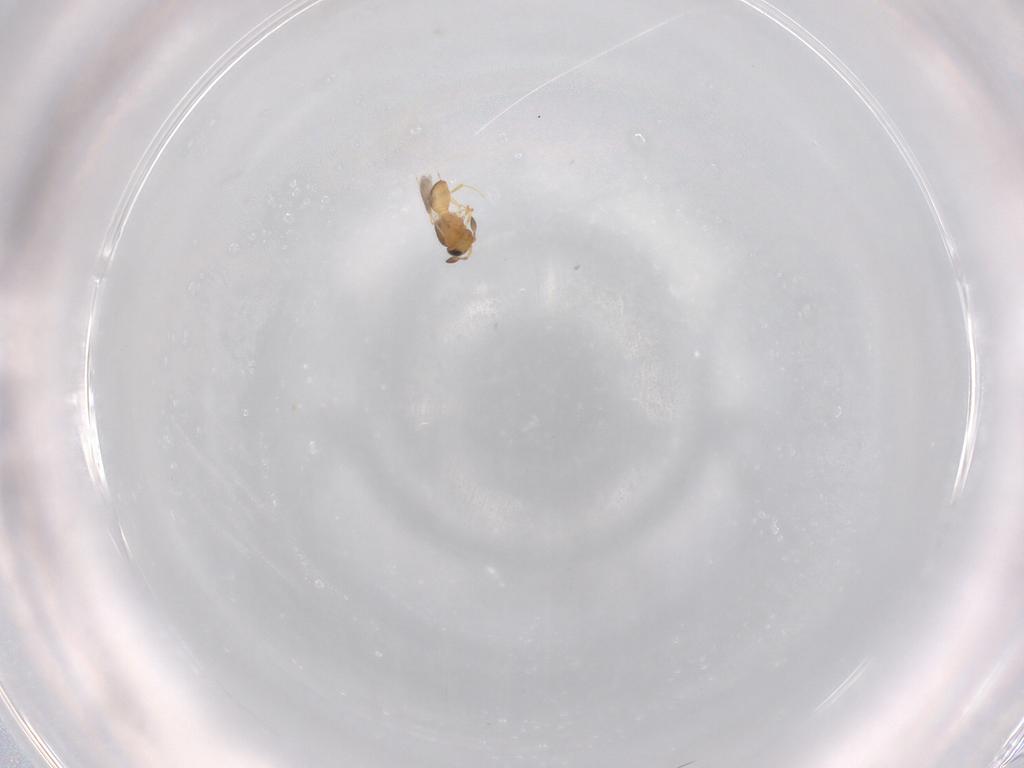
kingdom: Animalia
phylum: Arthropoda
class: Insecta
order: Hymenoptera
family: Scelionidae
